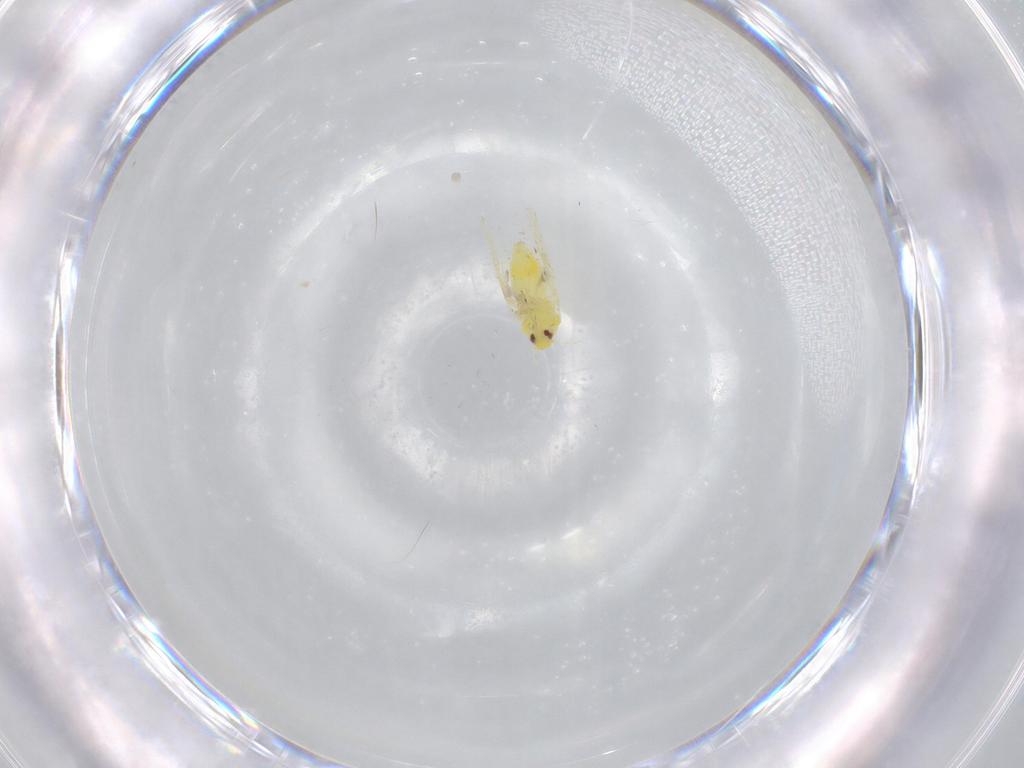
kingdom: Animalia
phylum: Arthropoda
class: Insecta
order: Hemiptera
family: Aleyrodidae
